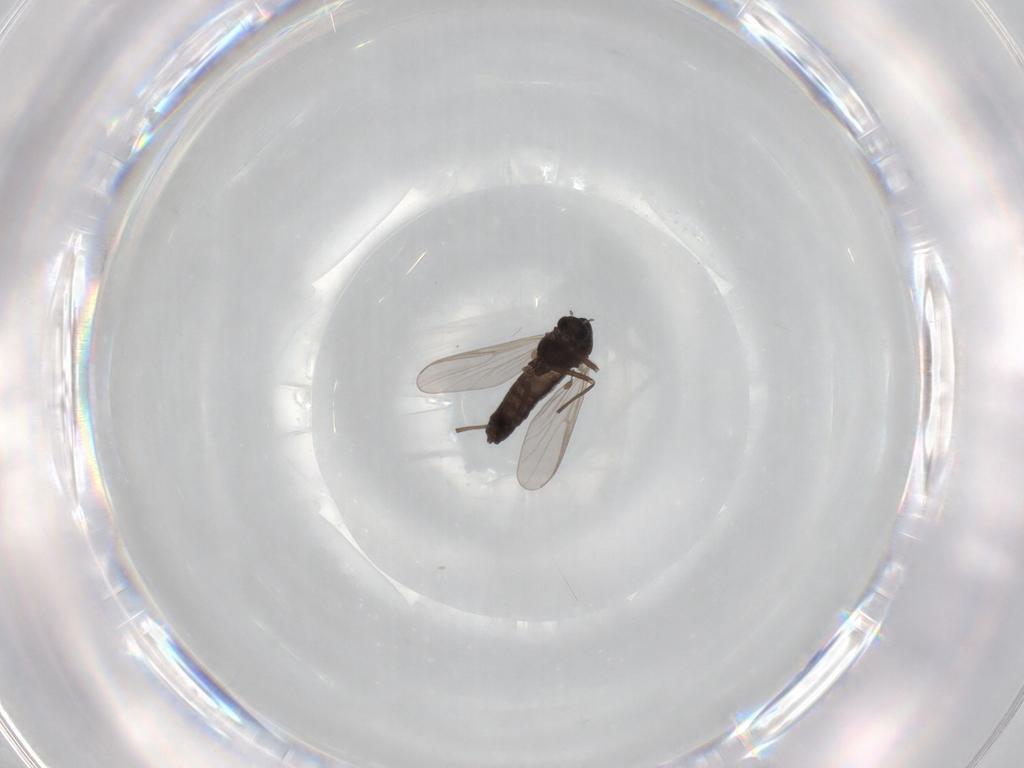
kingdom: Animalia
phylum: Arthropoda
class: Insecta
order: Diptera
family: Chironomidae
